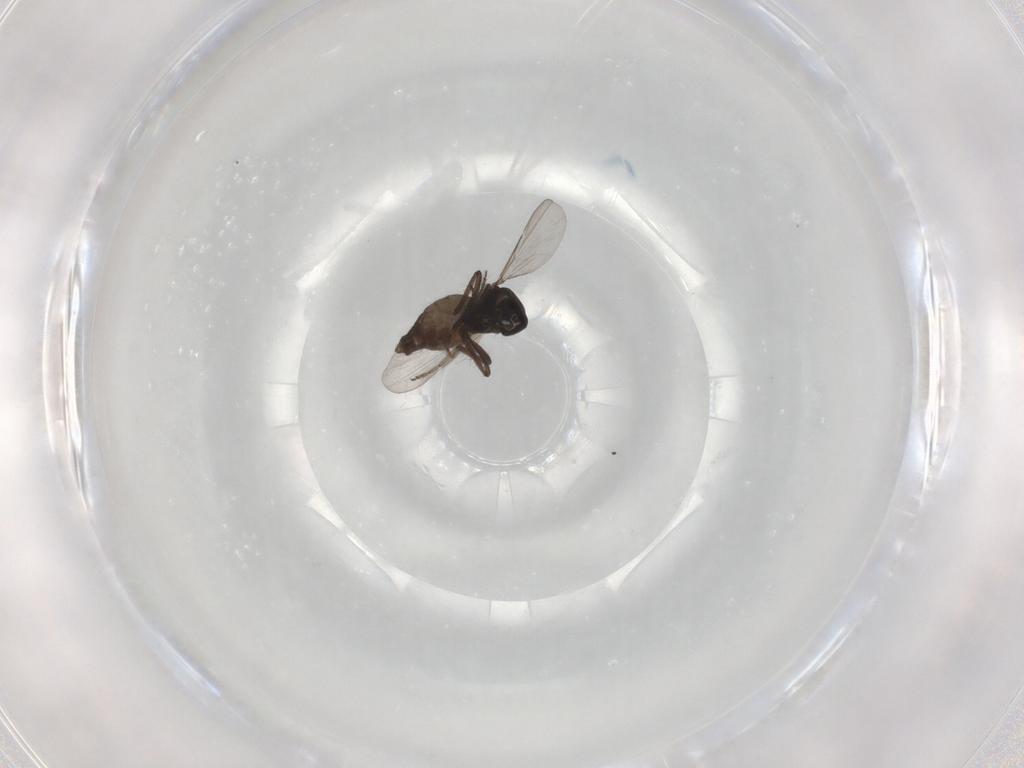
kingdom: Animalia
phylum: Arthropoda
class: Insecta
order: Diptera
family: Ceratopogonidae
